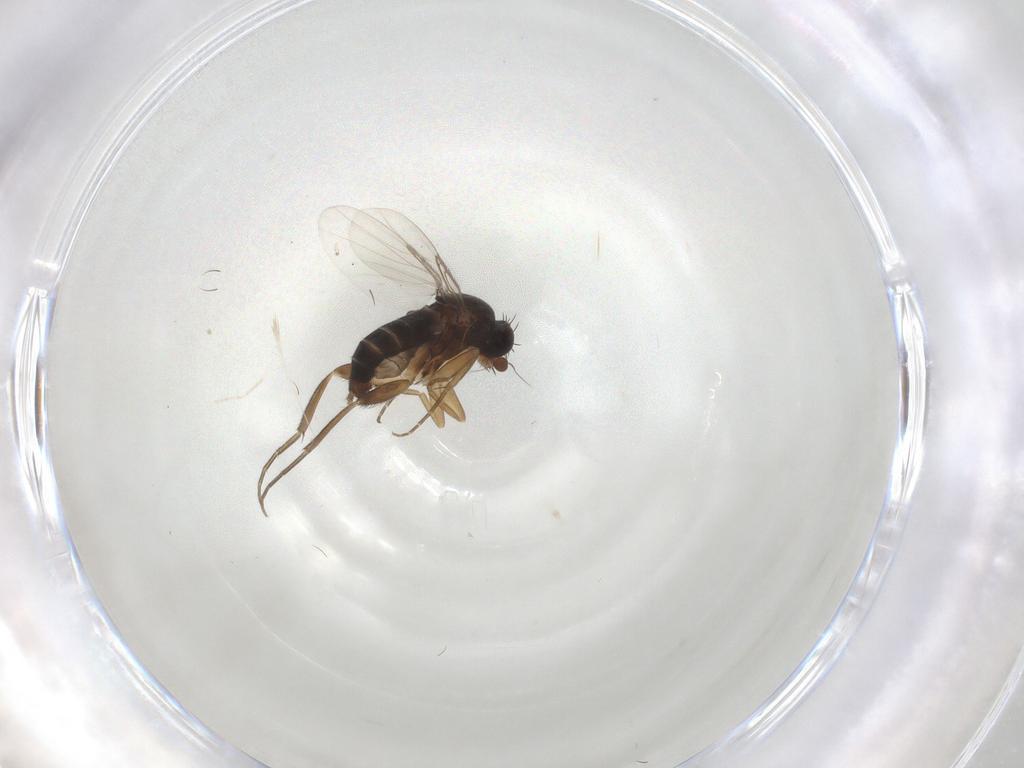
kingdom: Animalia
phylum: Arthropoda
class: Insecta
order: Diptera
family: Phoridae
